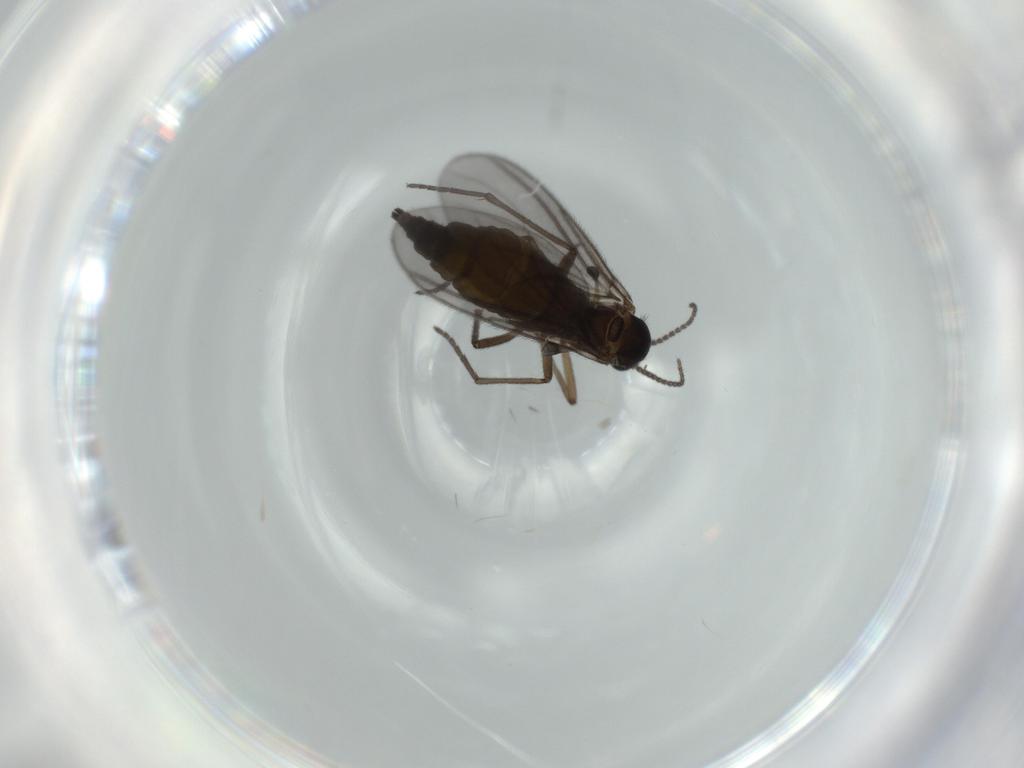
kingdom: Animalia
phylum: Arthropoda
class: Insecta
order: Diptera
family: Sciaridae
